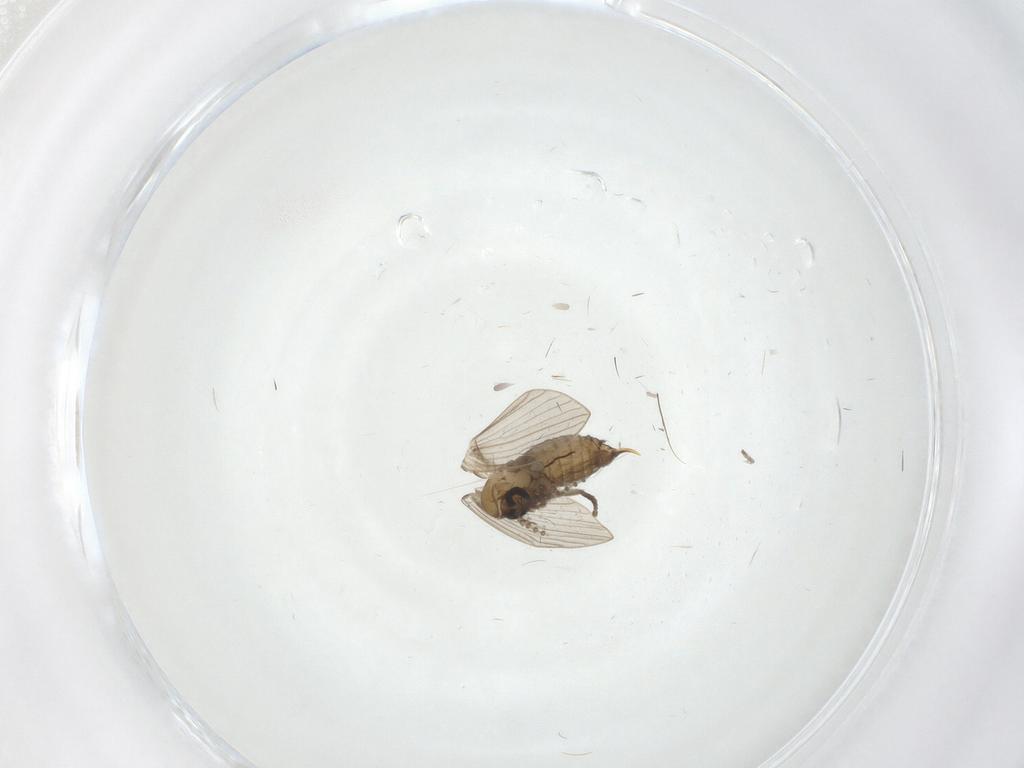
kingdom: Animalia
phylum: Arthropoda
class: Insecta
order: Diptera
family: Psychodidae
